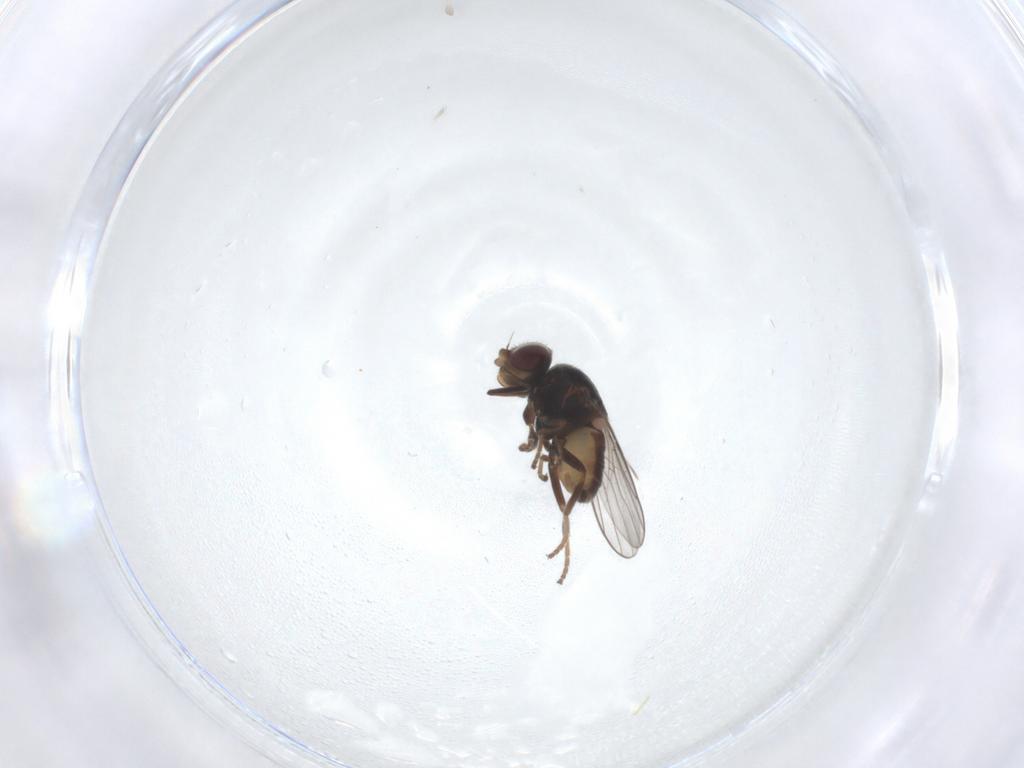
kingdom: Animalia
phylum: Arthropoda
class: Insecta
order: Diptera
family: Chloropidae
